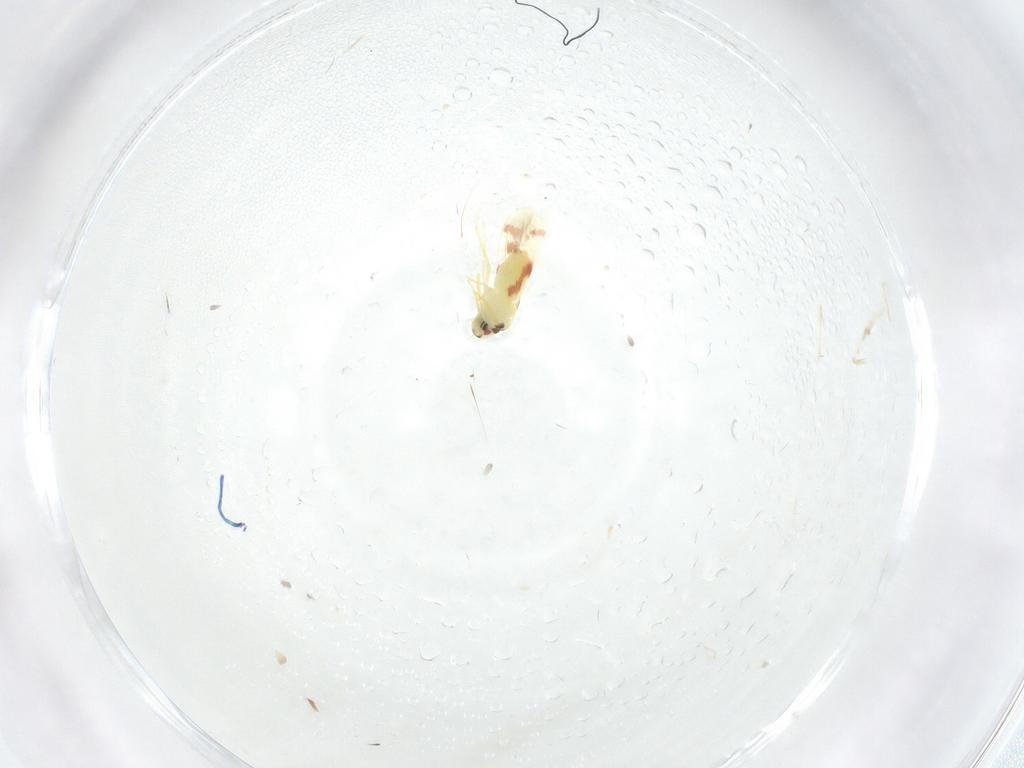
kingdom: Animalia
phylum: Arthropoda
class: Insecta
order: Hemiptera
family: Aleyrodidae
